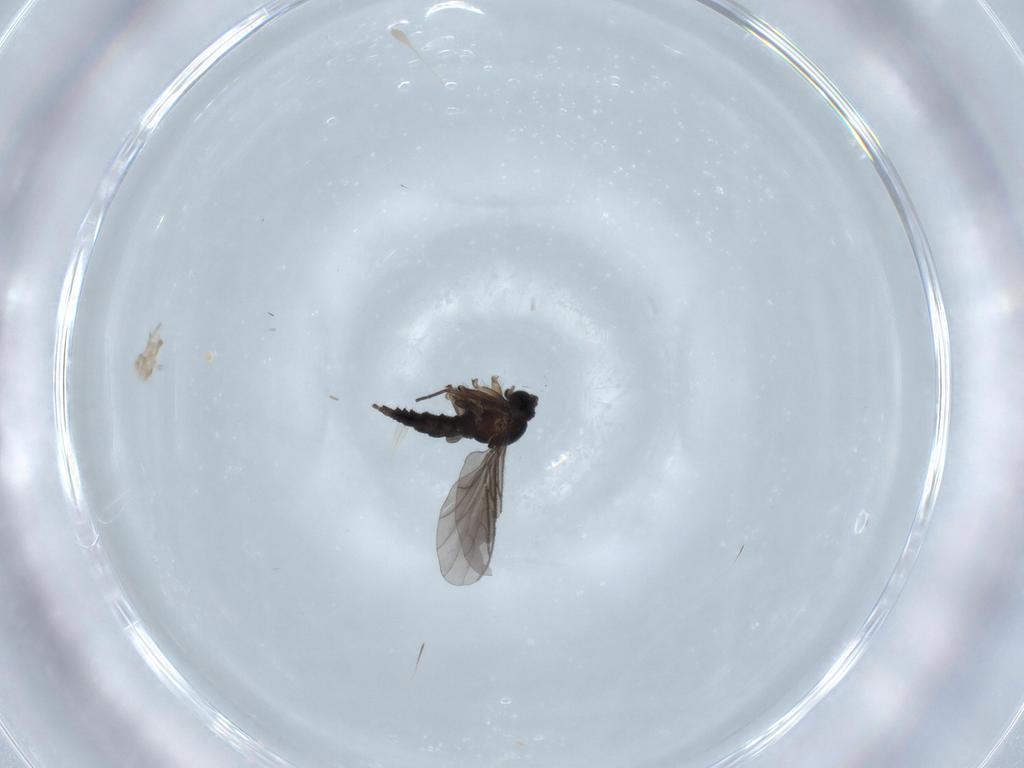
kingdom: Animalia
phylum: Arthropoda
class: Insecta
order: Diptera
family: Sciaridae
